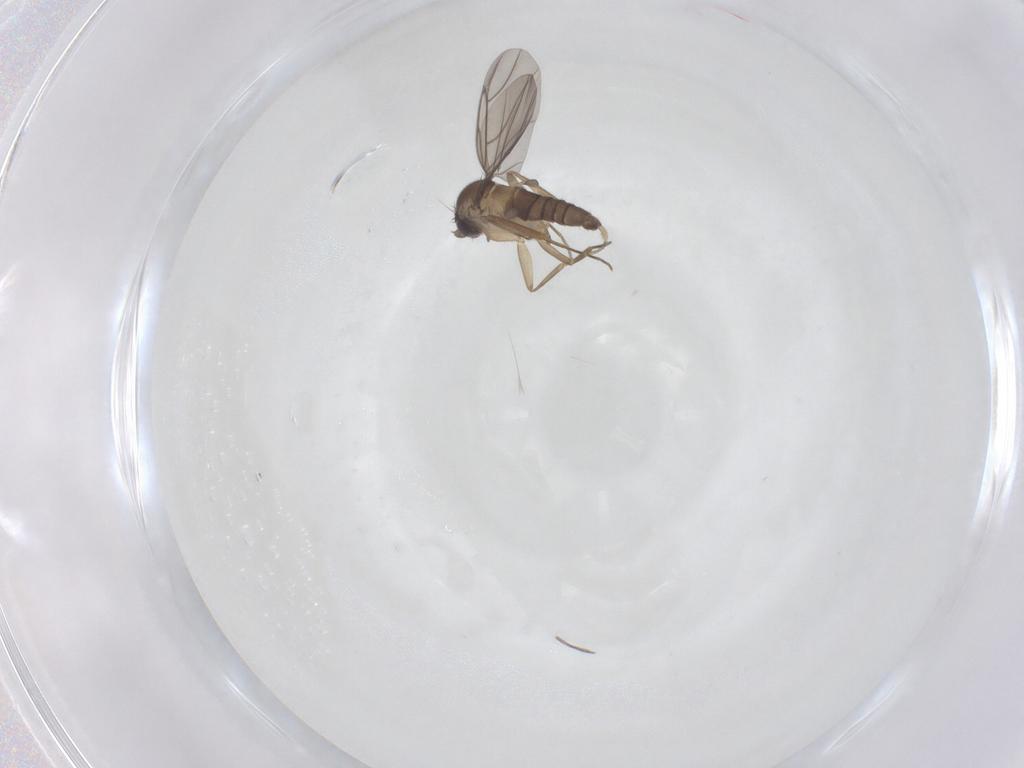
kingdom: Animalia
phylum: Arthropoda
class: Insecta
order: Diptera
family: Phoridae
